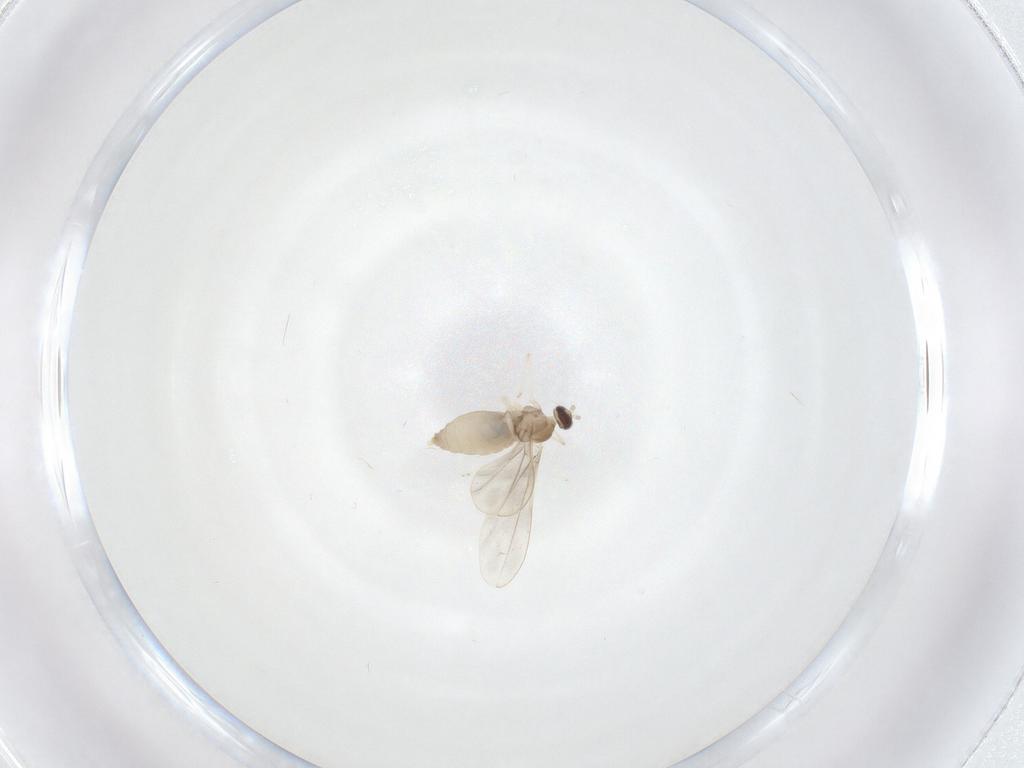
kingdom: Animalia
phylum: Arthropoda
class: Insecta
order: Diptera
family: Cecidomyiidae
